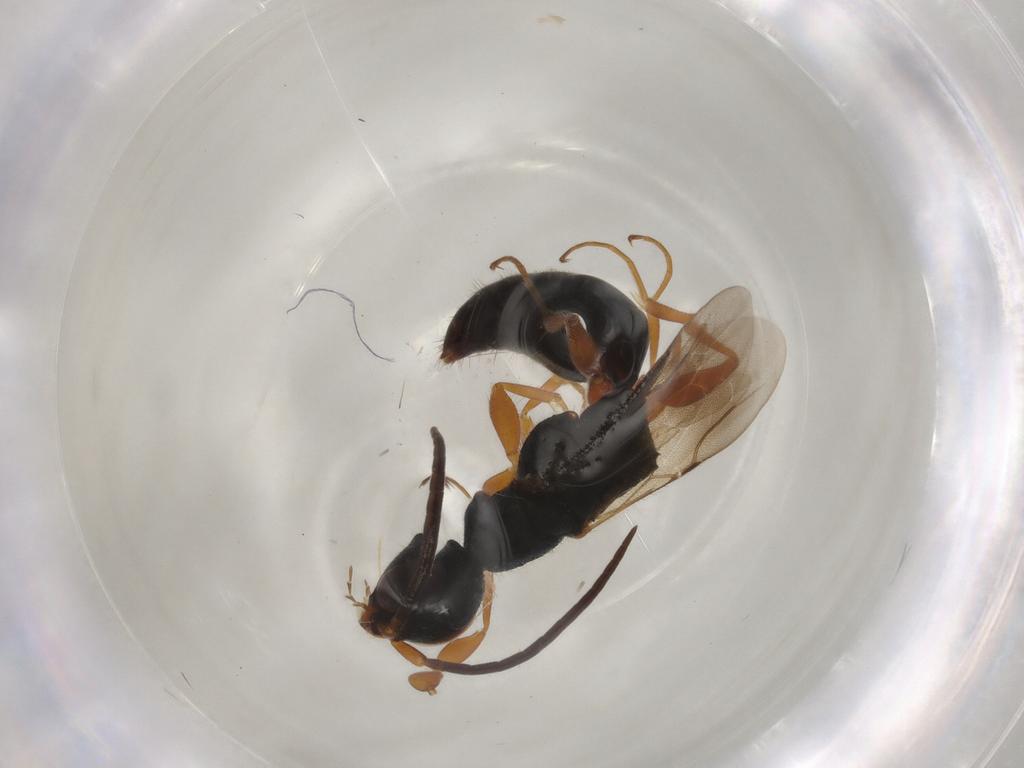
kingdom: Animalia
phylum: Arthropoda
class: Insecta
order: Hymenoptera
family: Bethylidae
